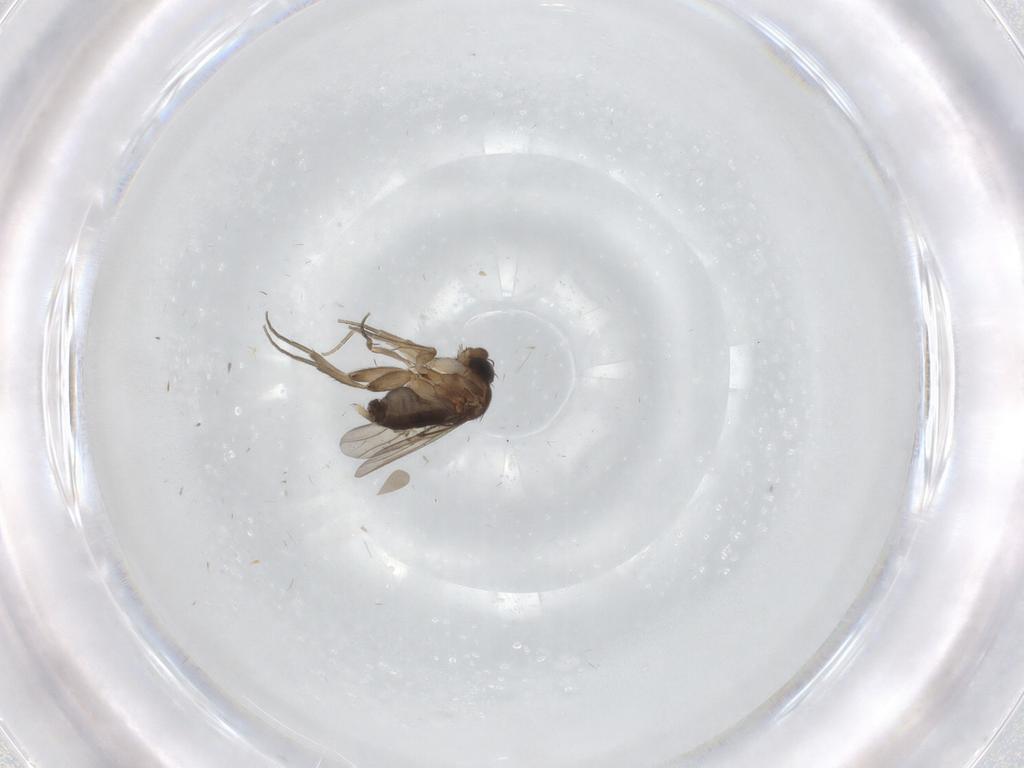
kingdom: Animalia
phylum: Arthropoda
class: Insecta
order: Diptera
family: Phoridae
